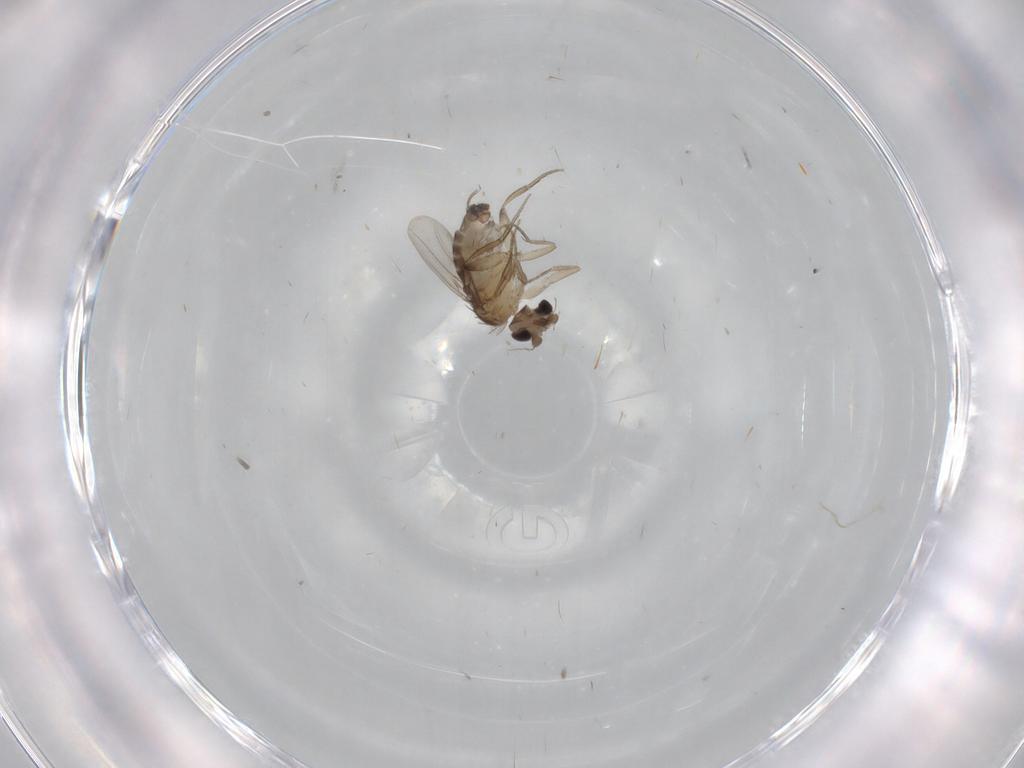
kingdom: Animalia
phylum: Arthropoda
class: Insecta
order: Diptera
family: Phoridae
